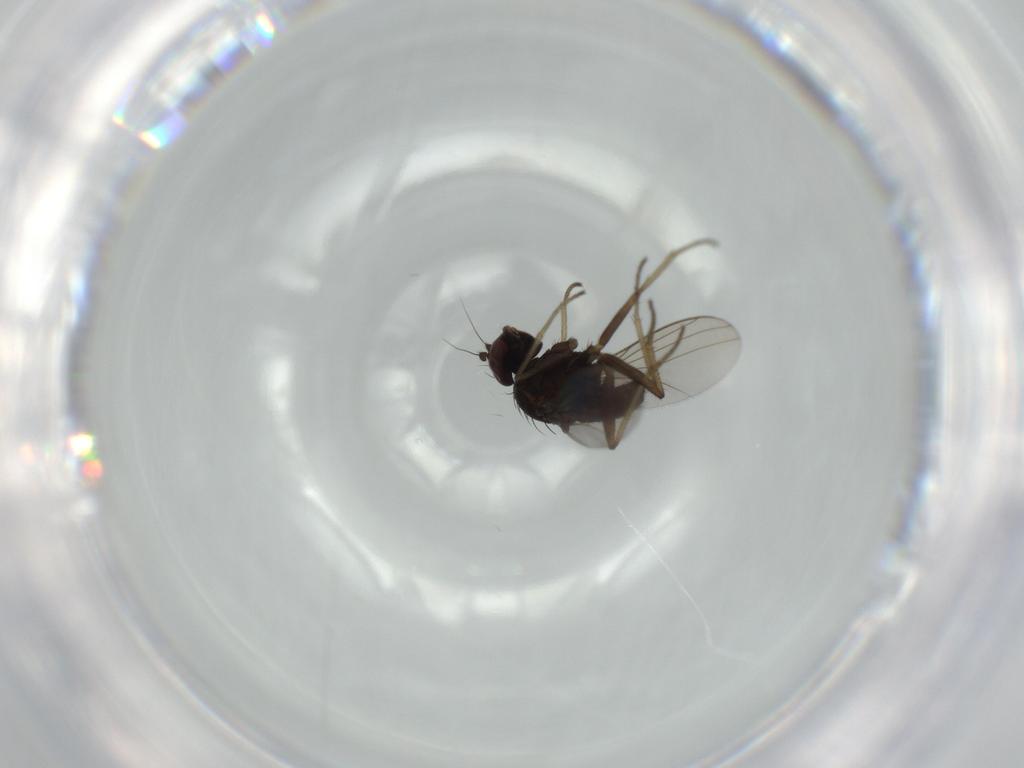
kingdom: Animalia
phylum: Arthropoda
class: Insecta
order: Diptera
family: Dolichopodidae
